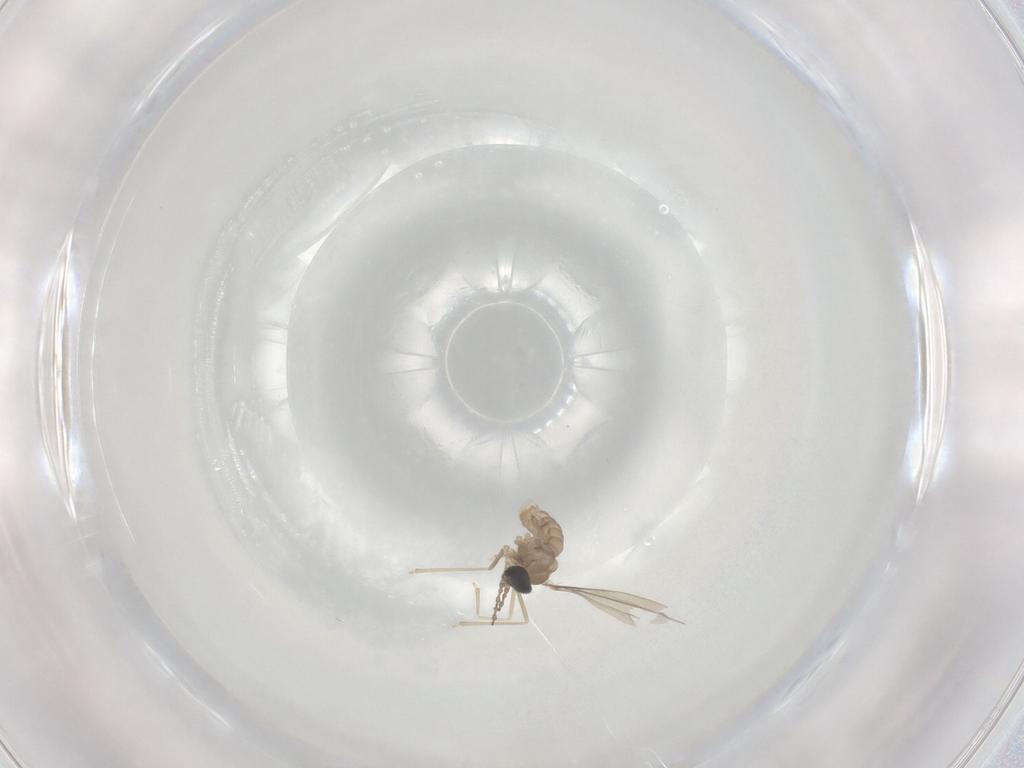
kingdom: Animalia
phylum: Arthropoda
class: Insecta
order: Diptera
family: Cecidomyiidae
